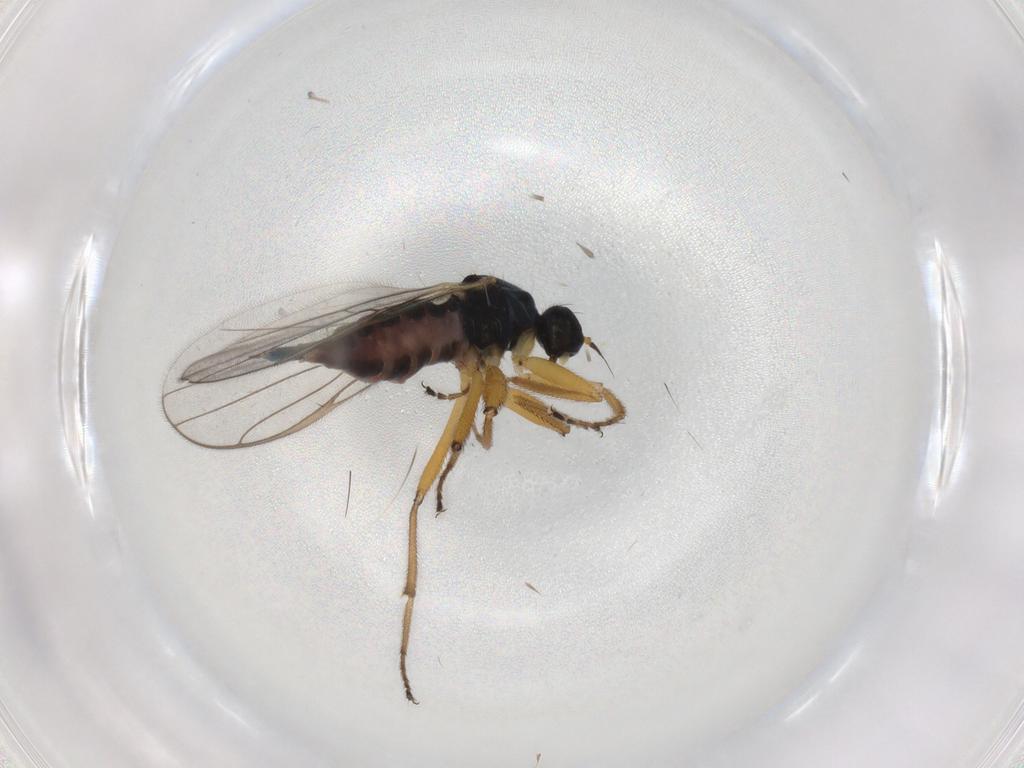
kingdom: Animalia
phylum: Arthropoda
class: Insecta
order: Diptera
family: Hybotidae
